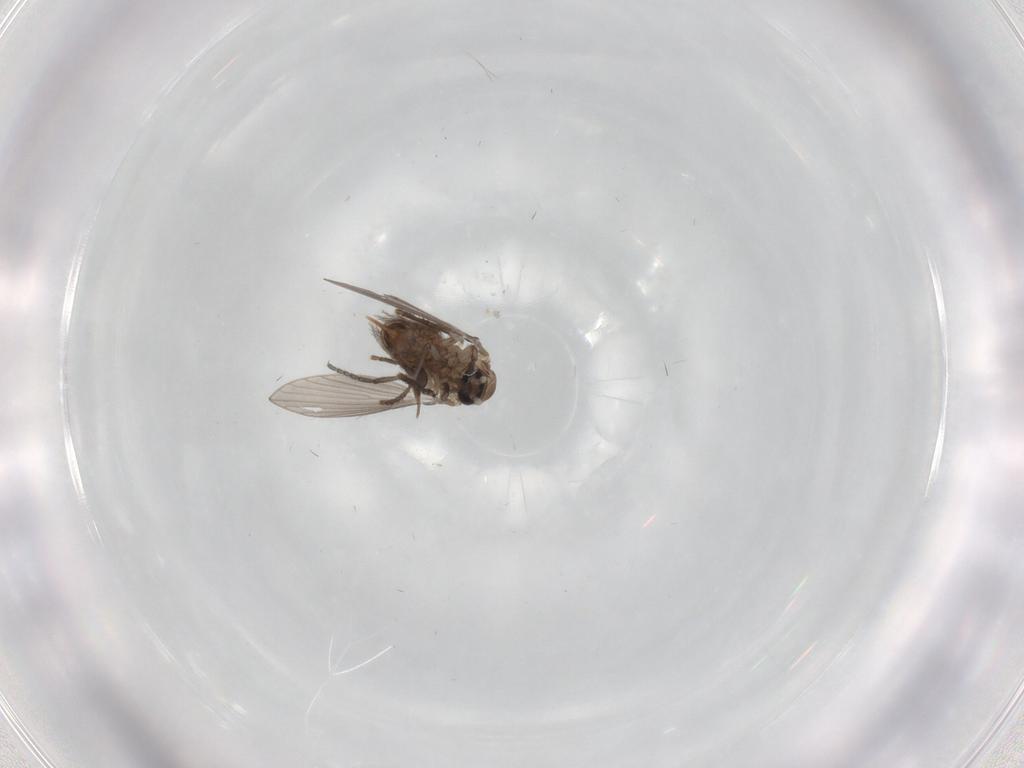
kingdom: Animalia
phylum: Arthropoda
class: Insecta
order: Diptera
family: Psychodidae
